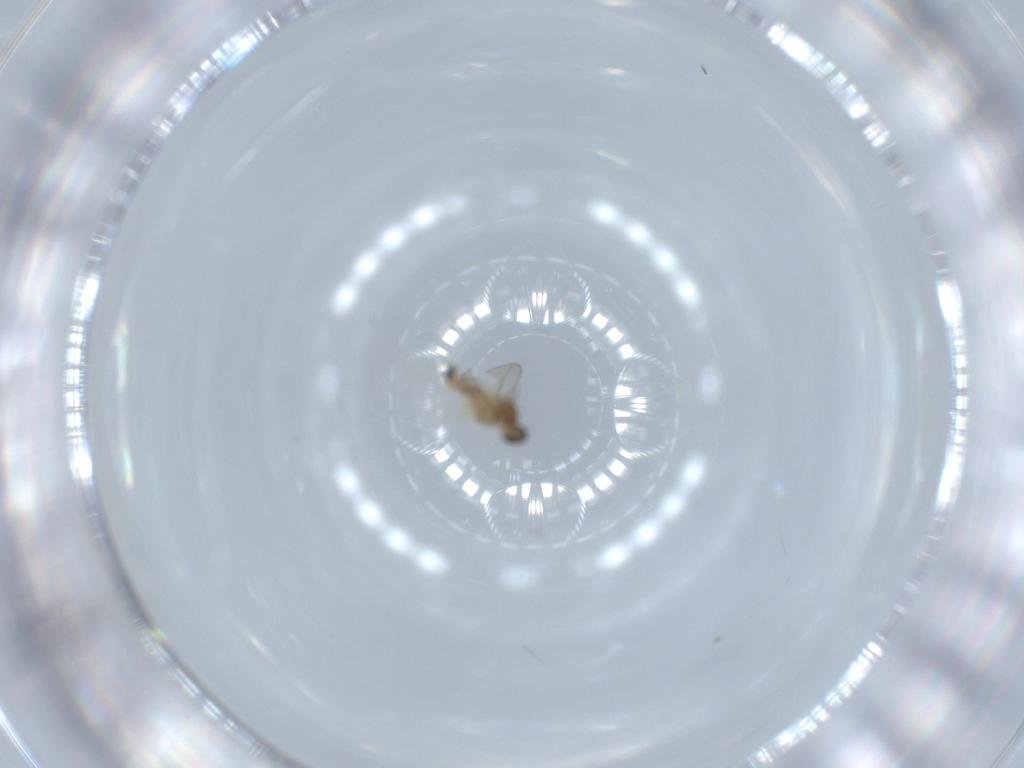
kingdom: Animalia
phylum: Arthropoda
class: Insecta
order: Diptera
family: Cecidomyiidae
